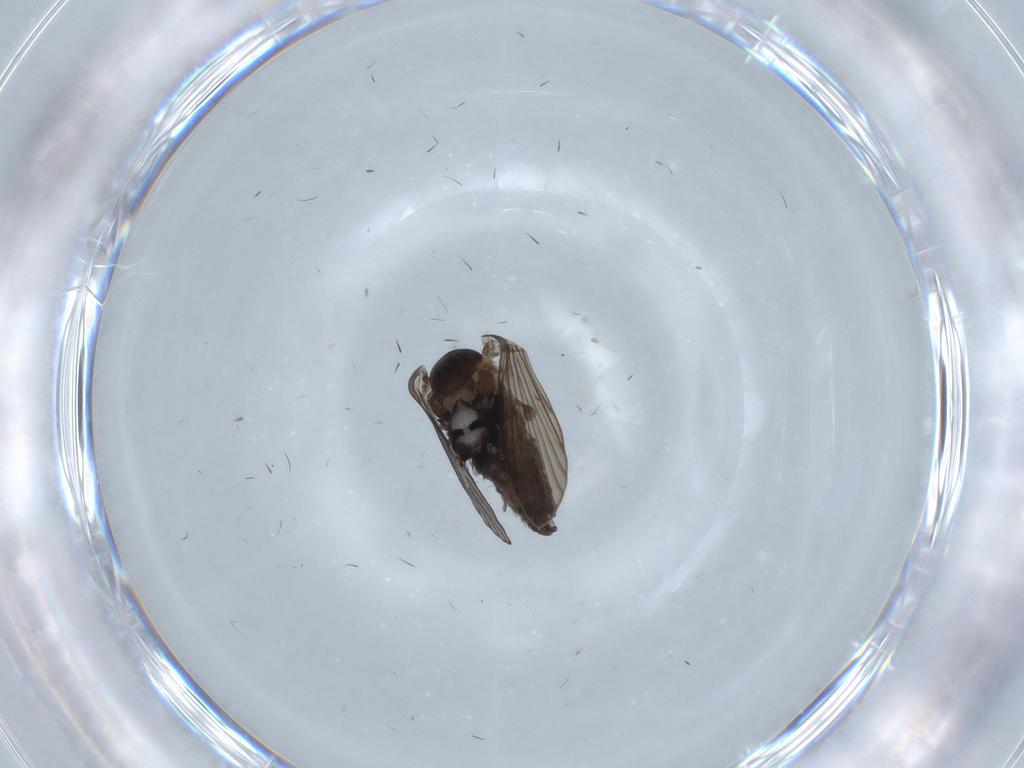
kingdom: Animalia
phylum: Arthropoda
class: Insecta
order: Diptera
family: Psychodidae
